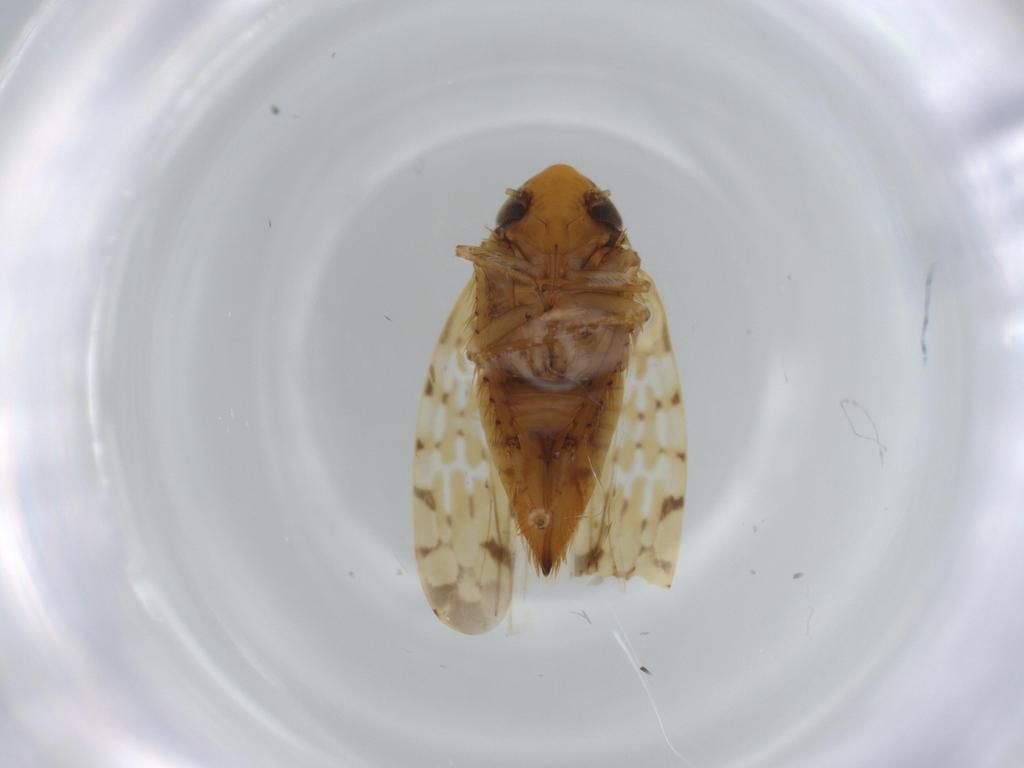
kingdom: Animalia
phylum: Arthropoda
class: Insecta
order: Hemiptera
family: Cicadellidae
